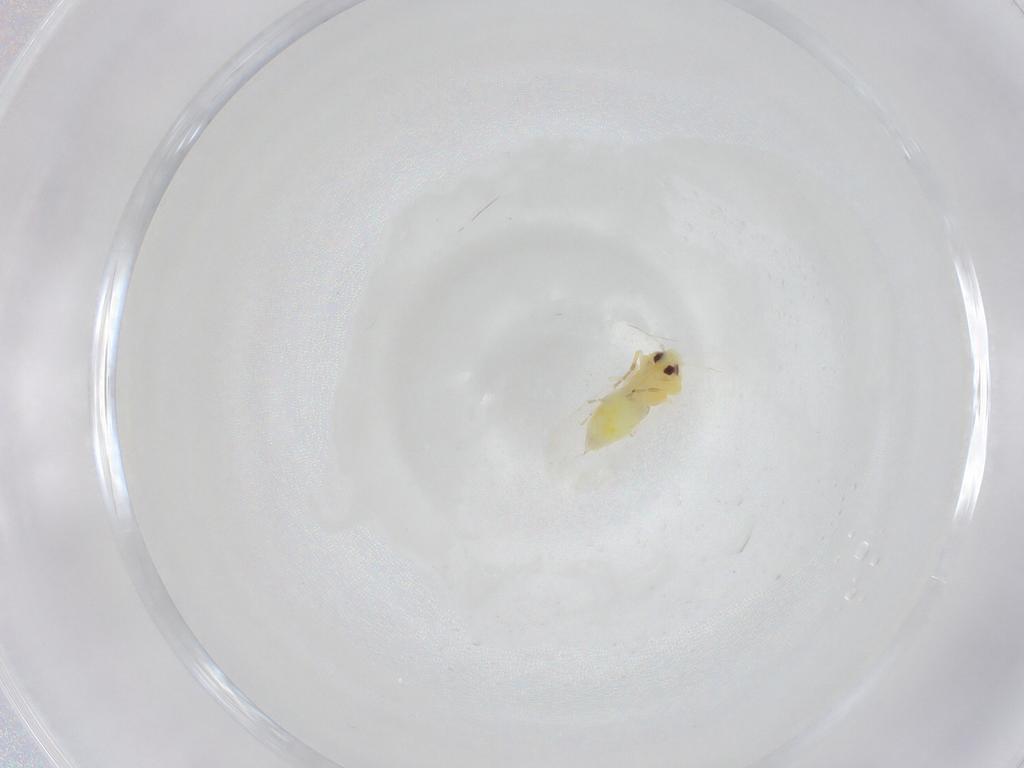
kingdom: Animalia
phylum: Arthropoda
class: Insecta
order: Hemiptera
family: Aleyrodidae
